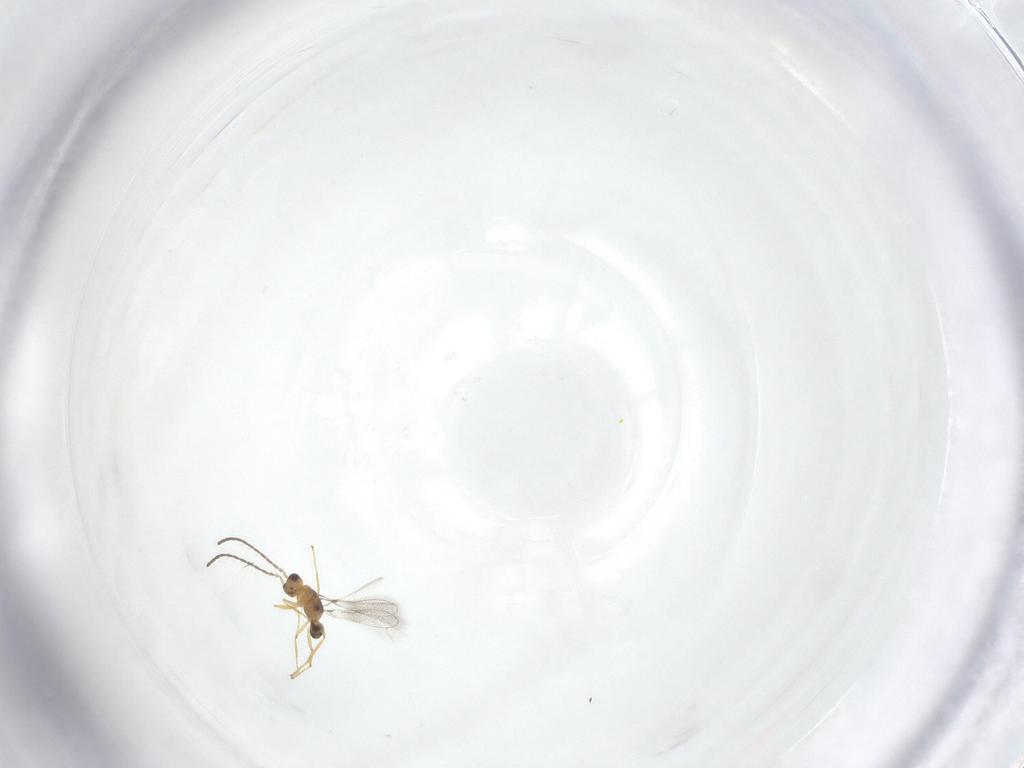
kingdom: Animalia
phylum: Arthropoda
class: Insecta
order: Hymenoptera
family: Mymaridae
